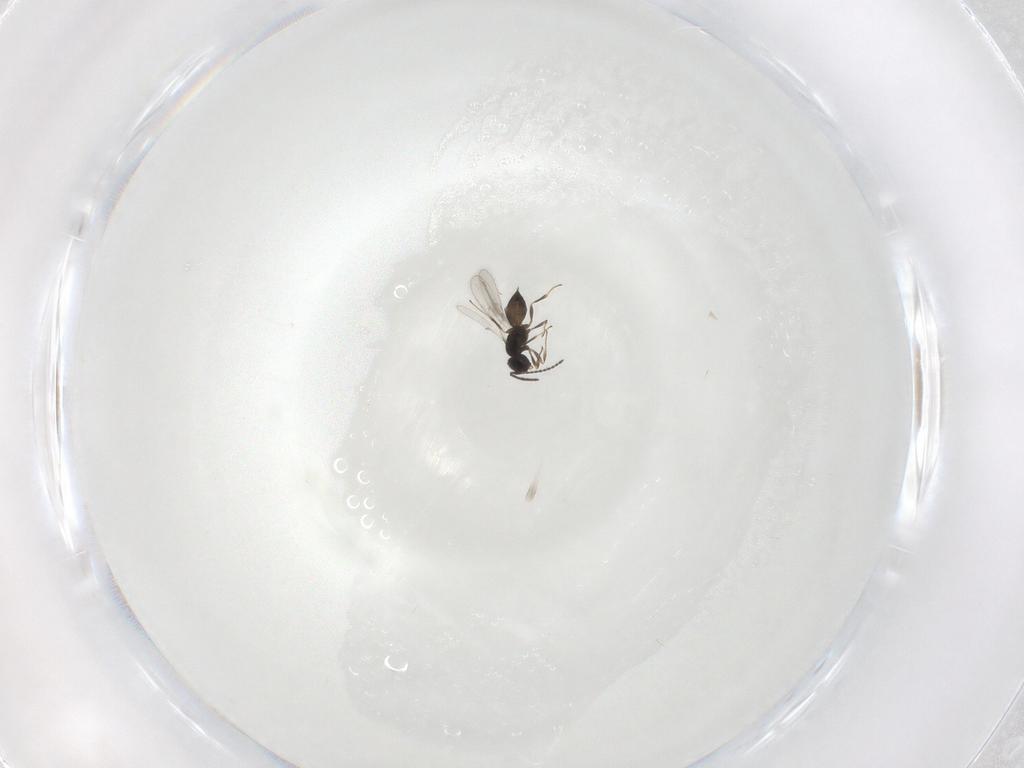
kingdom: Animalia
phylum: Arthropoda
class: Insecta
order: Hymenoptera
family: Scelionidae
